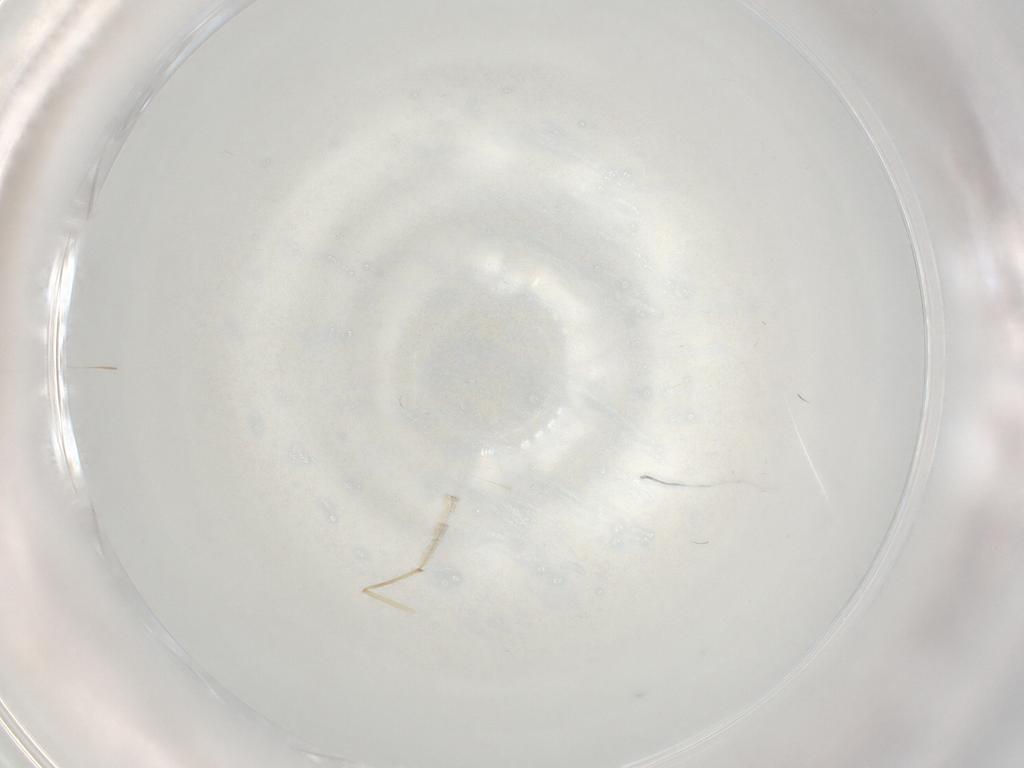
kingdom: Animalia
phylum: Arthropoda
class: Insecta
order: Diptera
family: Chironomidae
